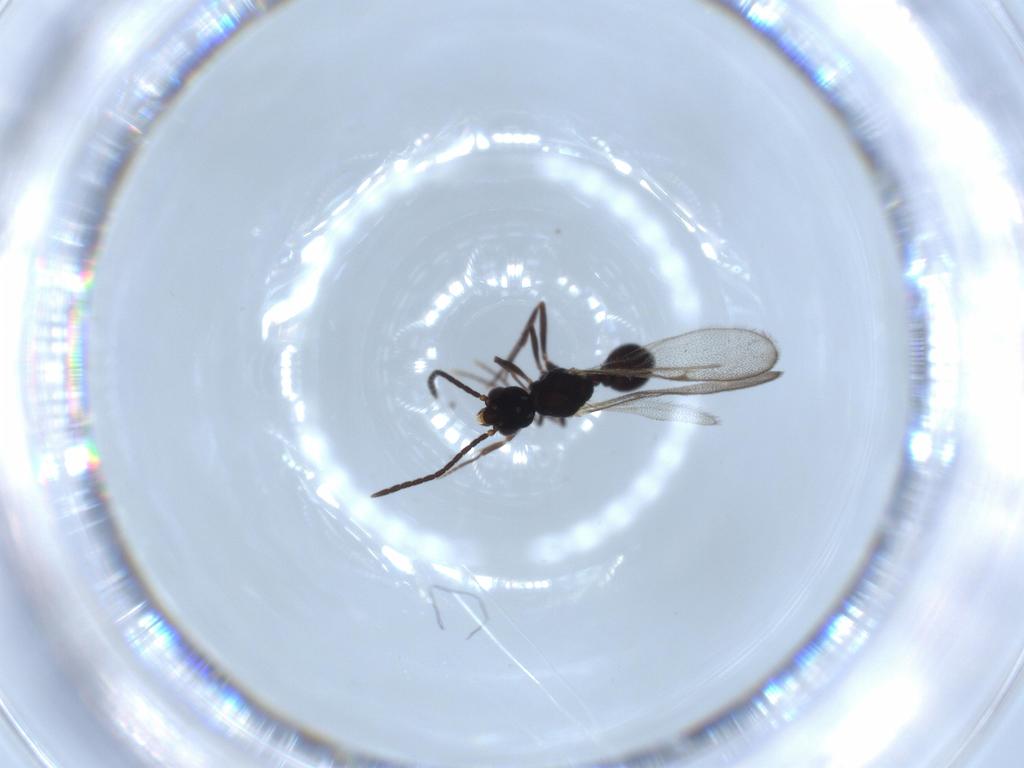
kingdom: Animalia
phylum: Arthropoda
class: Insecta
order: Hymenoptera
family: Formicidae
